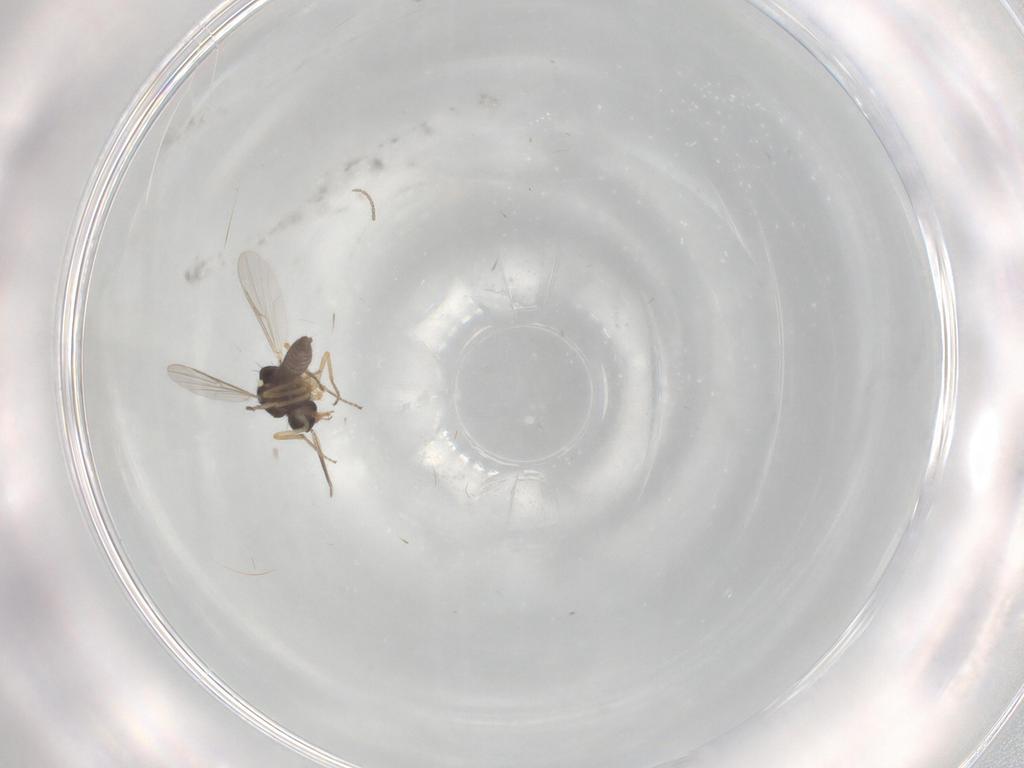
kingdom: Animalia
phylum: Arthropoda
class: Insecta
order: Diptera
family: Ceratopogonidae
